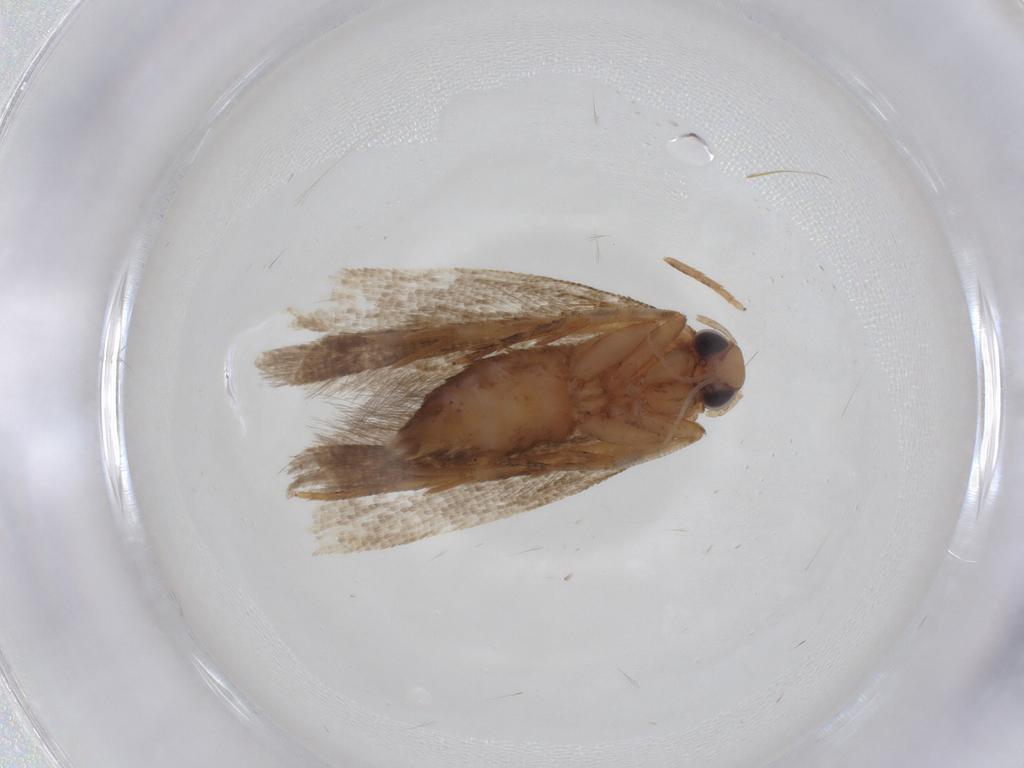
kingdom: Animalia
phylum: Arthropoda
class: Insecta
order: Lepidoptera
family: Gelechiidae
